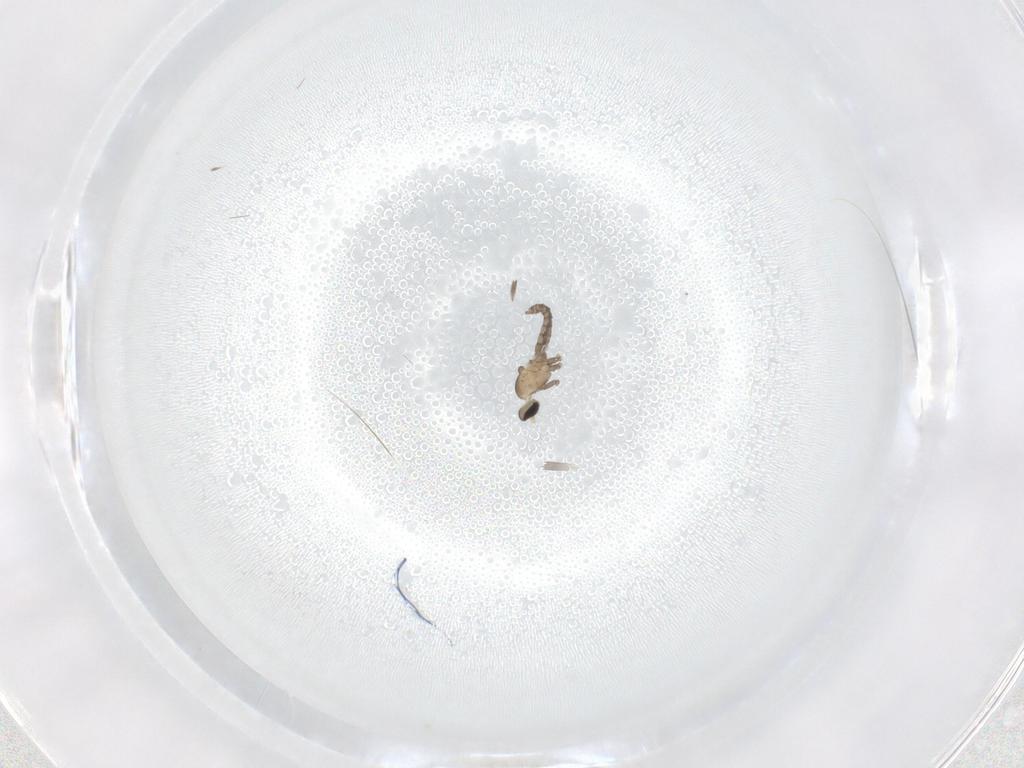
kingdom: Animalia
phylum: Arthropoda
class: Insecta
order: Diptera
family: Cecidomyiidae
